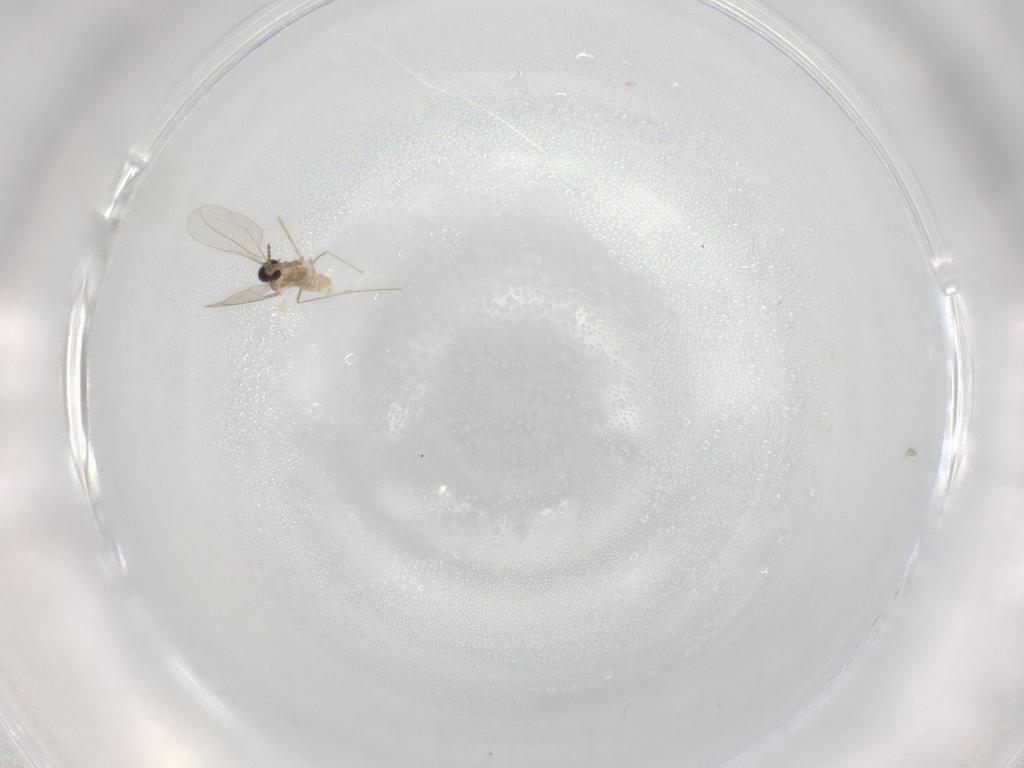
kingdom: Animalia
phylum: Arthropoda
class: Insecta
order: Diptera
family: Cecidomyiidae
